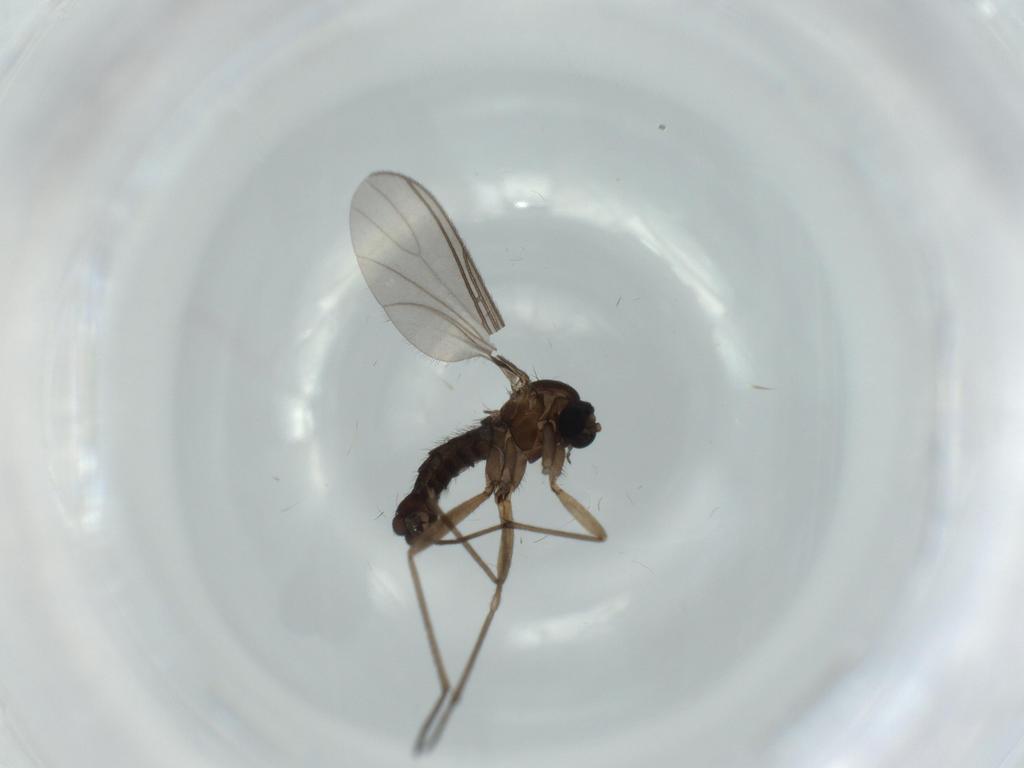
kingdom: Animalia
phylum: Arthropoda
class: Insecta
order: Diptera
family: Sciaridae
